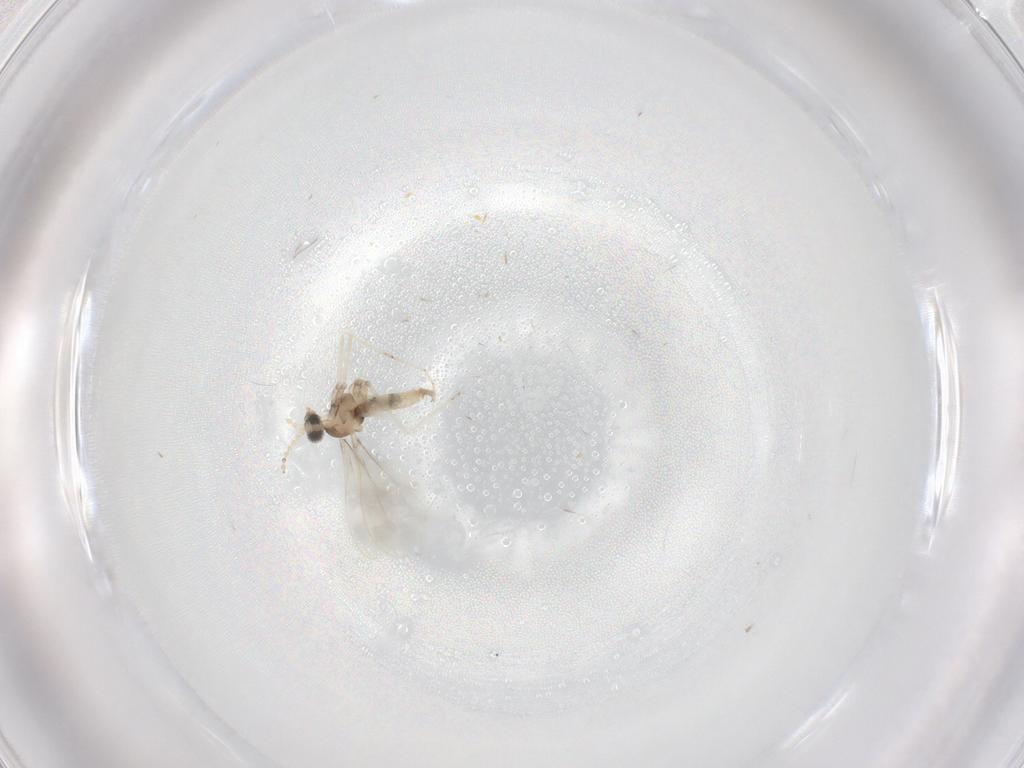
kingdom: Animalia
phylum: Arthropoda
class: Insecta
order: Diptera
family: Cecidomyiidae
